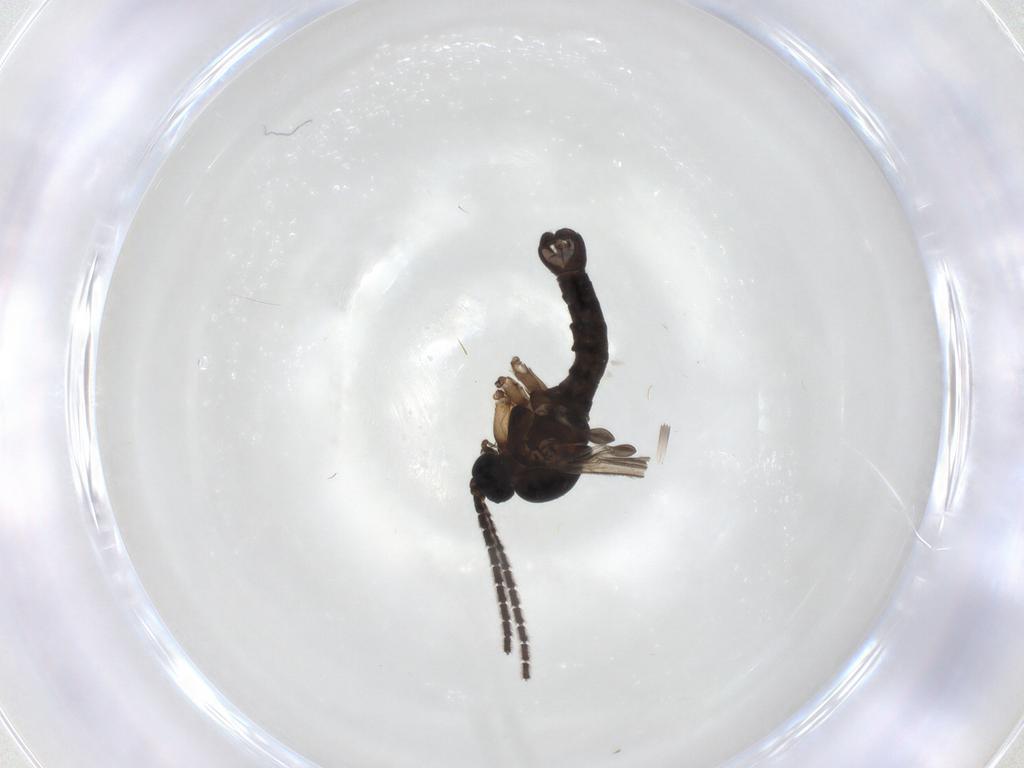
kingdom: Animalia
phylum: Arthropoda
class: Insecta
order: Diptera
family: Sciaridae
